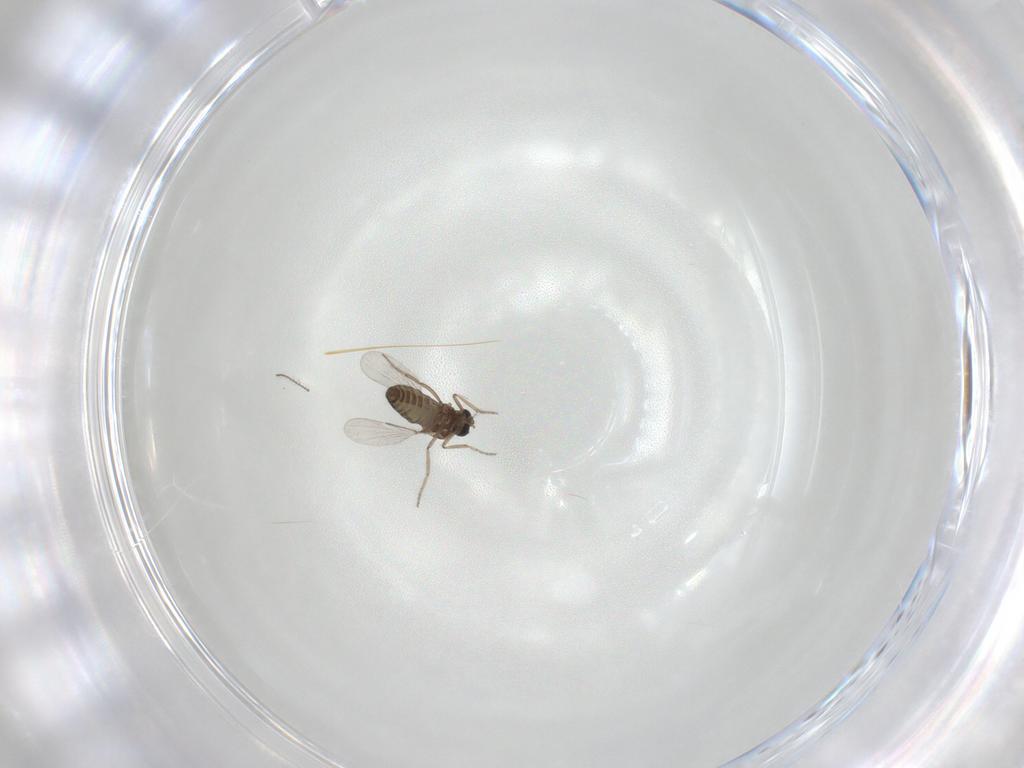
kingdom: Animalia
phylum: Arthropoda
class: Insecta
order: Diptera
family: Ceratopogonidae
